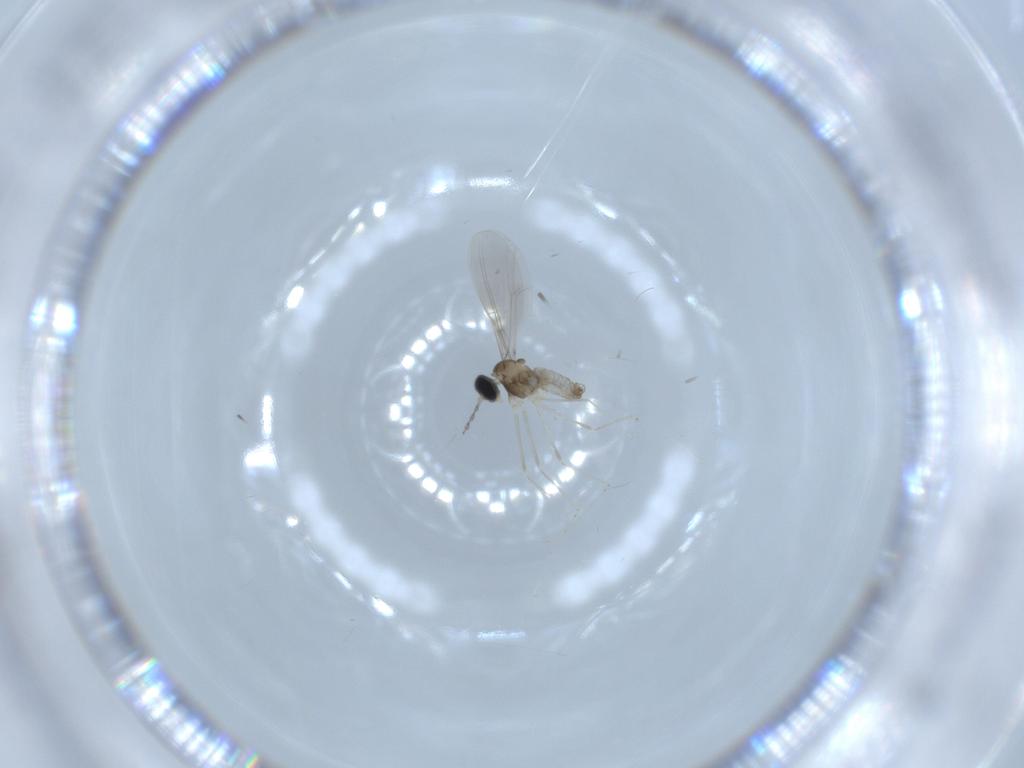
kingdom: Animalia
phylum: Arthropoda
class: Insecta
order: Diptera
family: Cecidomyiidae
